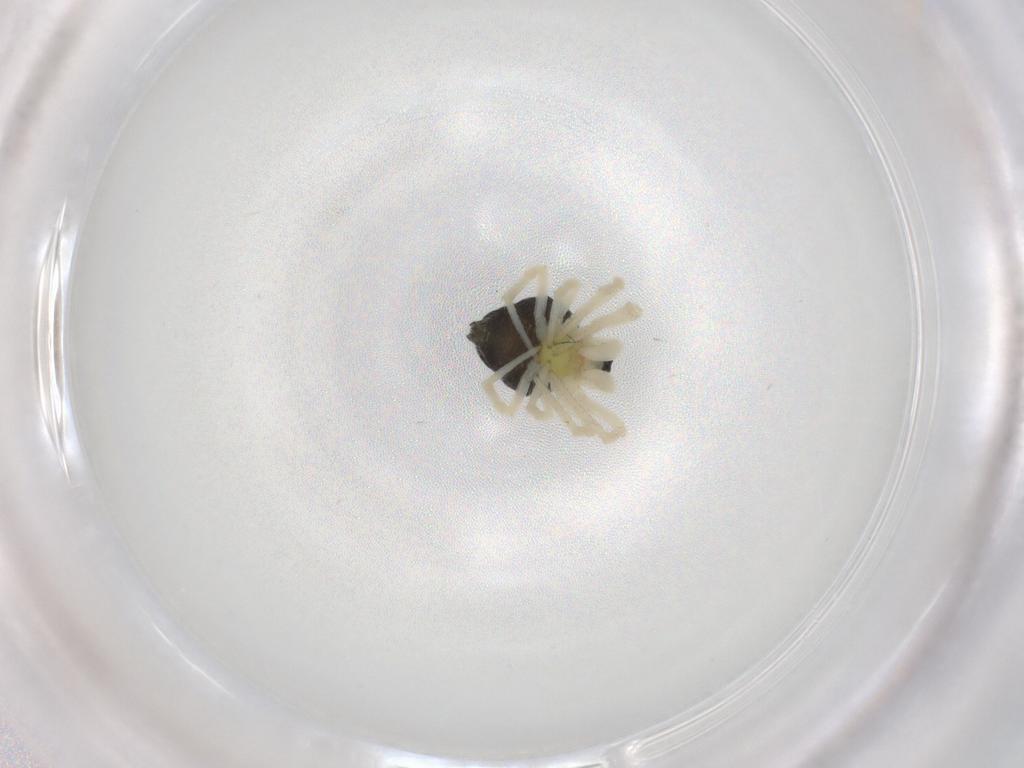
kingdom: Animalia
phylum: Arthropoda
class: Arachnida
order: Araneae
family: Theridiidae
